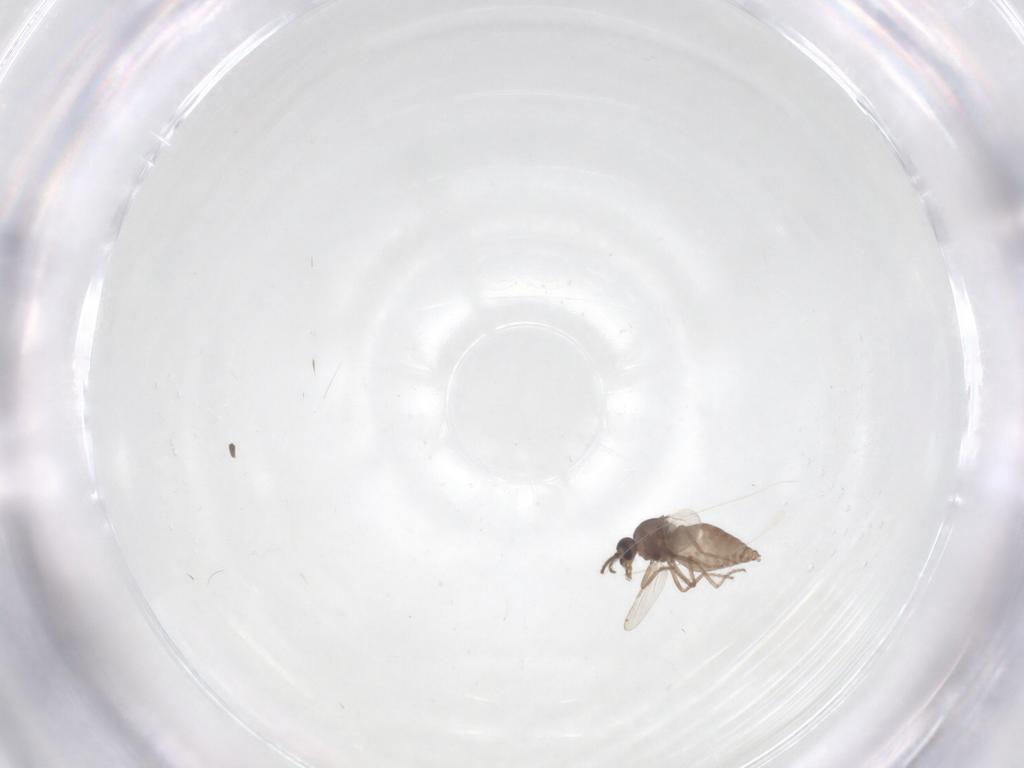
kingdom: Animalia
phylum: Arthropoda
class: Insecta
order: Diptera
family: Ceratopogonidae
